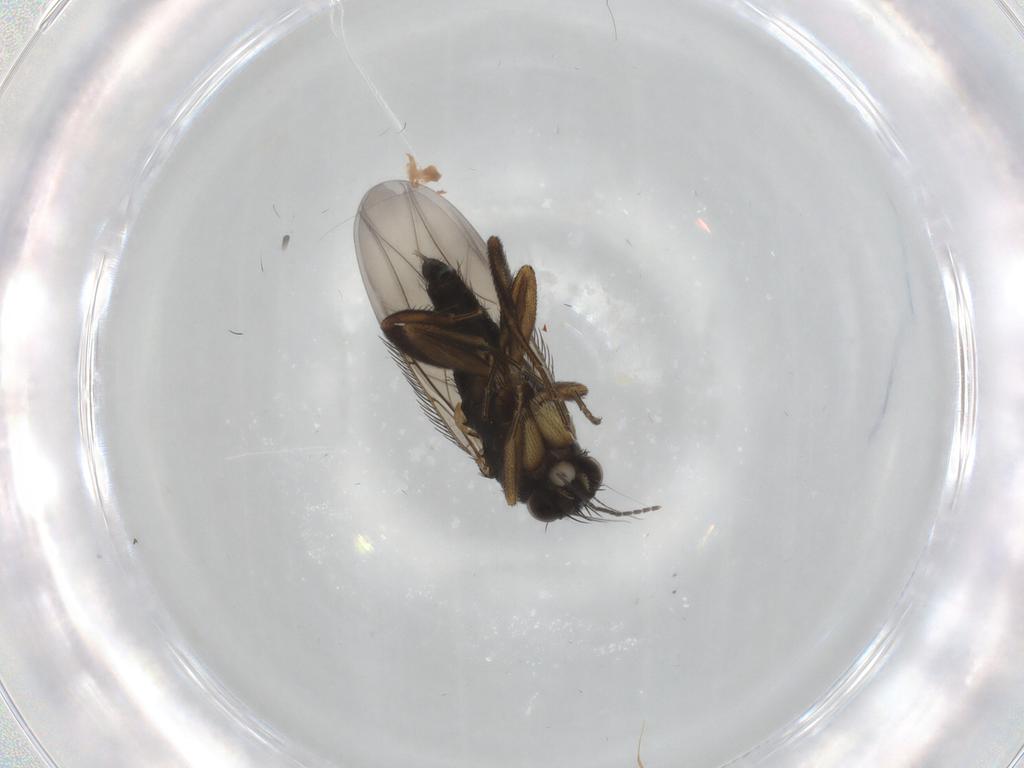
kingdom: Animalia
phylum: Arthropoda
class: Insecta
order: Diptera
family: Phoridae
